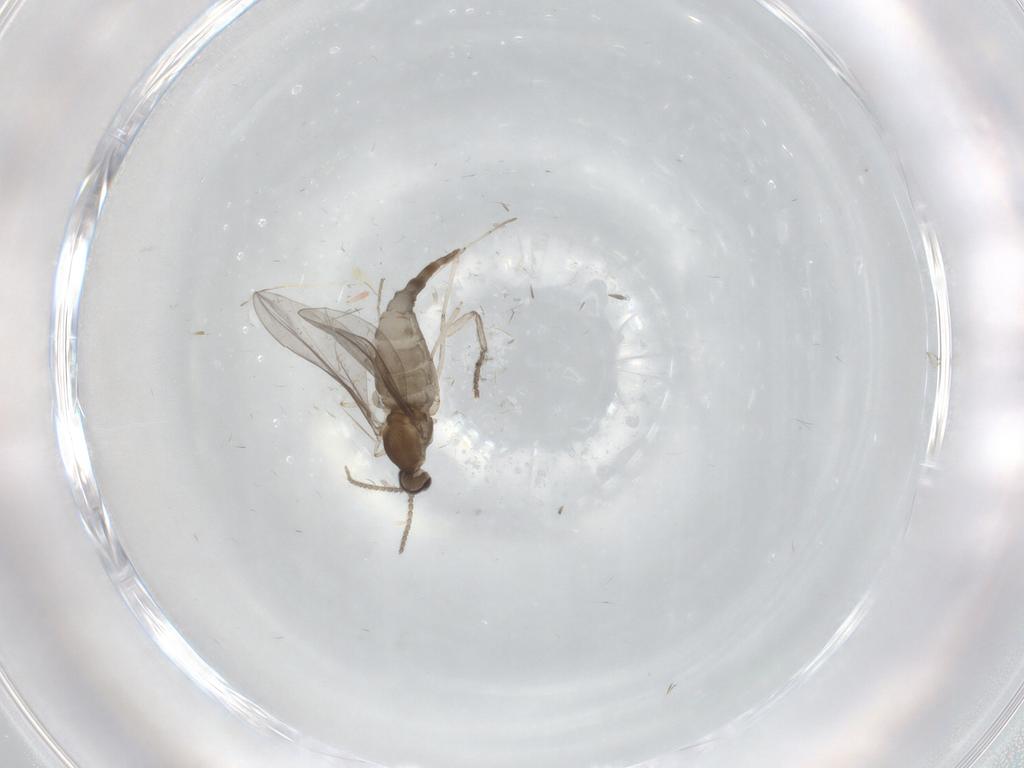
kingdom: Animalia
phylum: Arthropoda
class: Insecta
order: Diptera
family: Cecidomyiidae
